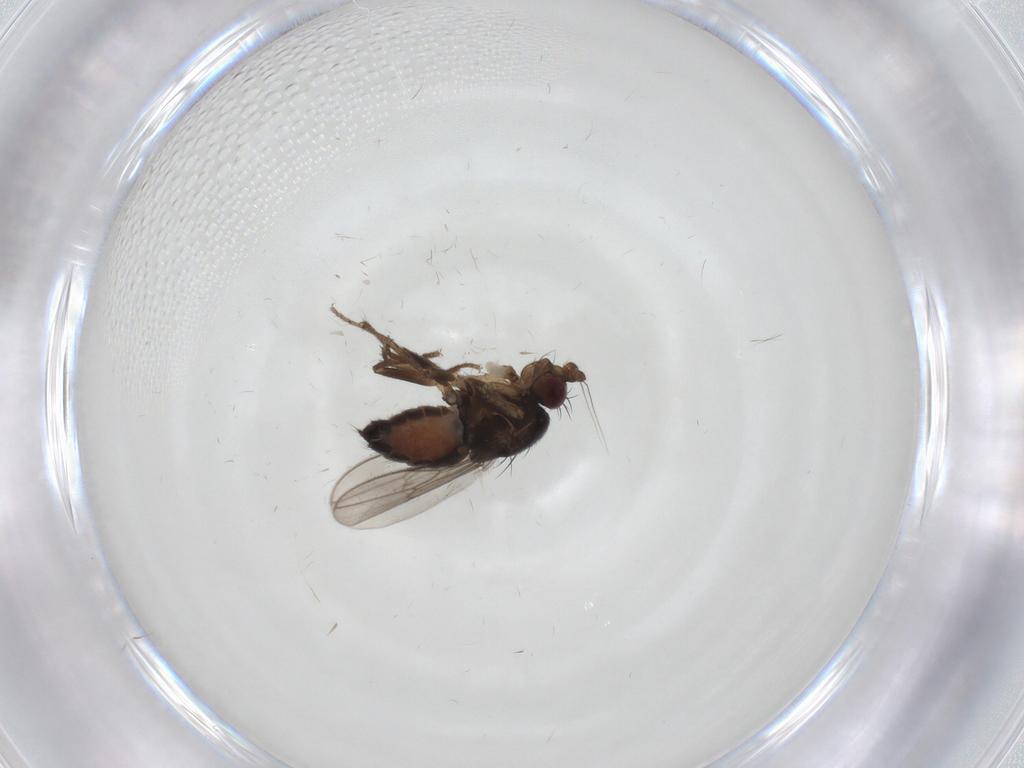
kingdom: Animalia
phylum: Arthropoda
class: Insecta
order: Diptera
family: Sphaeroceridae
